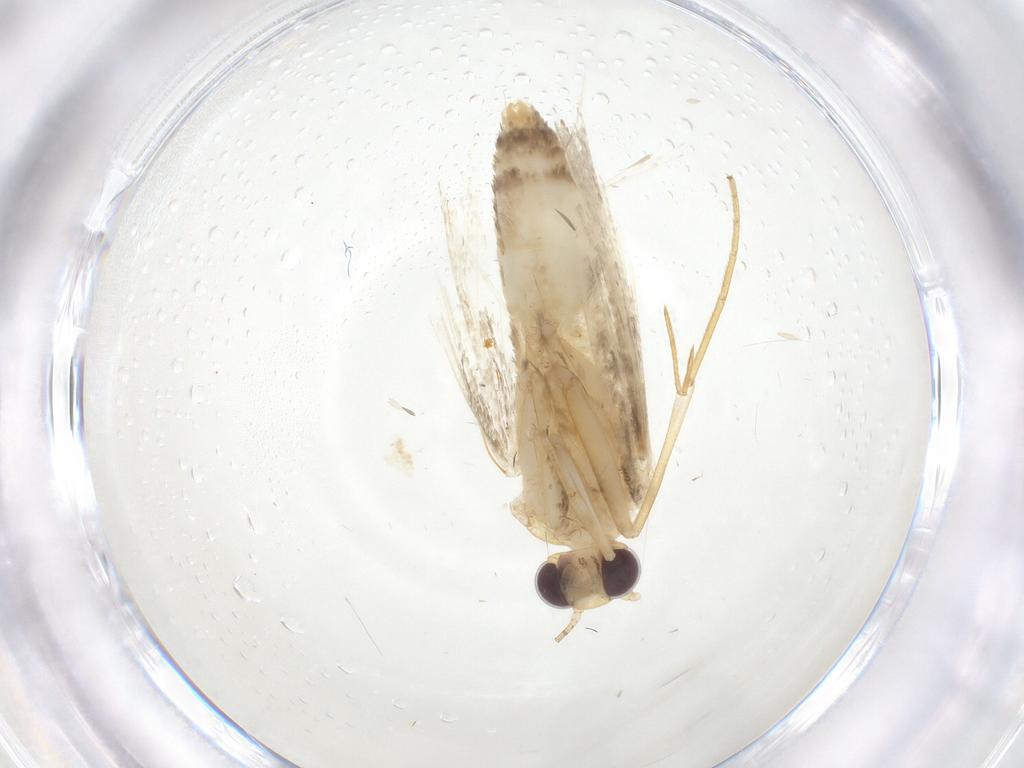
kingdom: Animalia
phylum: Arthropoda
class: Insecta
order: Lepidoptera
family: Erebidae
